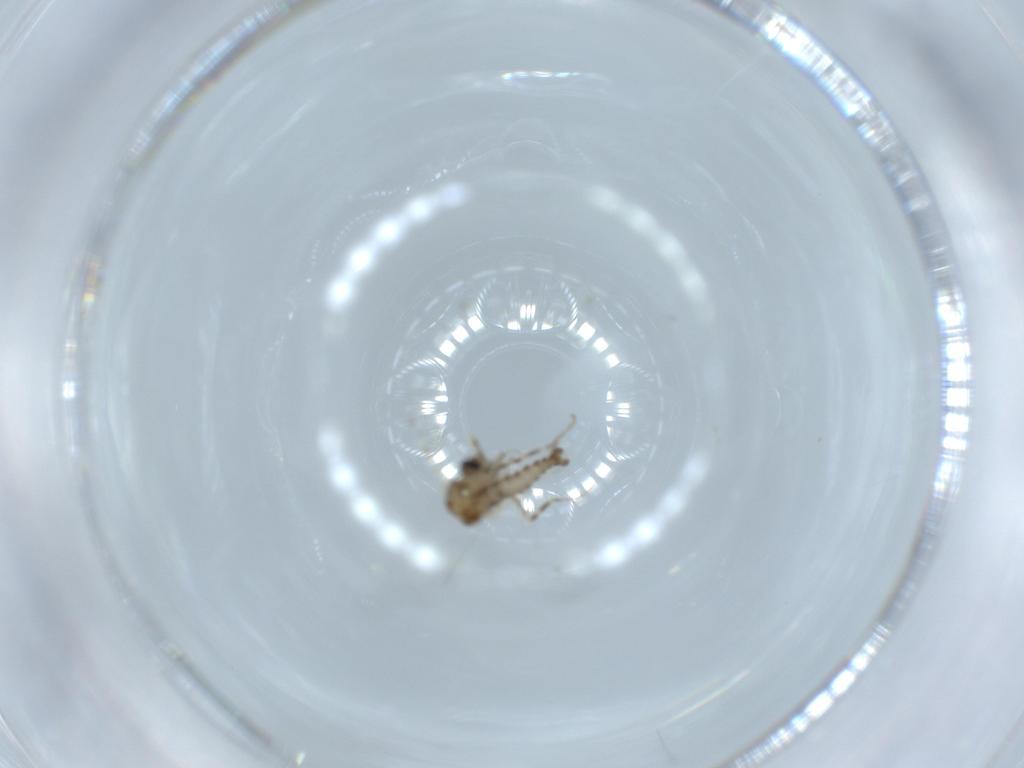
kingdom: Animalia
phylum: Arthropoda
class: Insecta
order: Diptera
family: Ceratopogonidae
